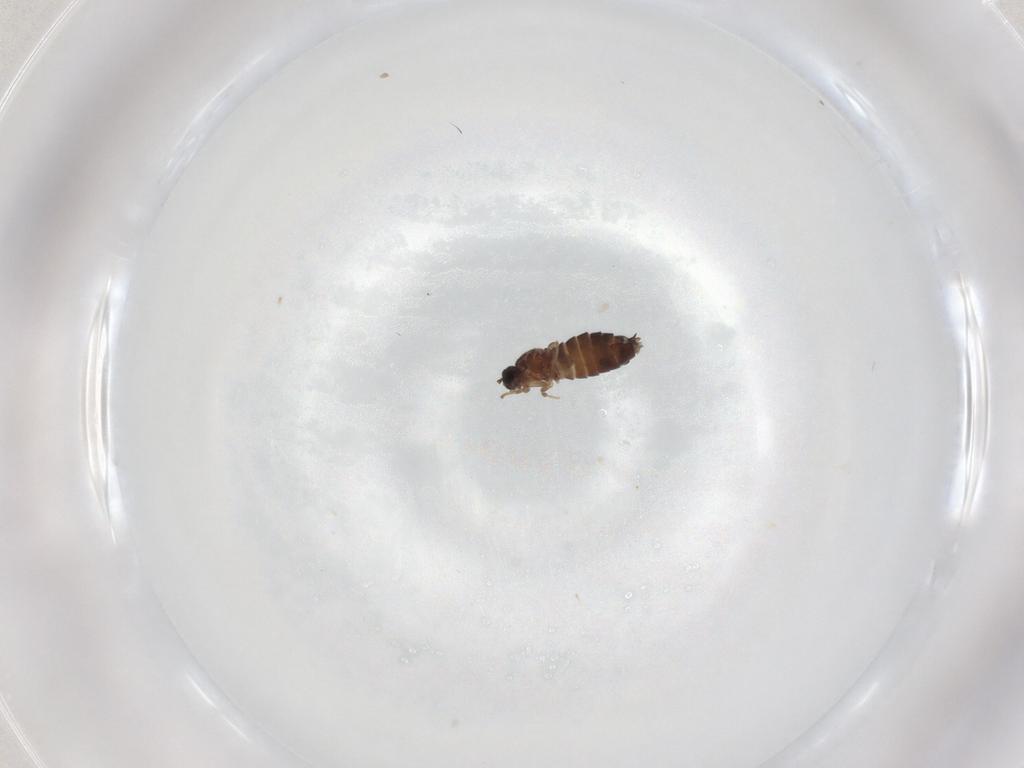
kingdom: Animalia
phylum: Arthropoda
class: Insecta
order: Diptera
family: Scatopsidae
